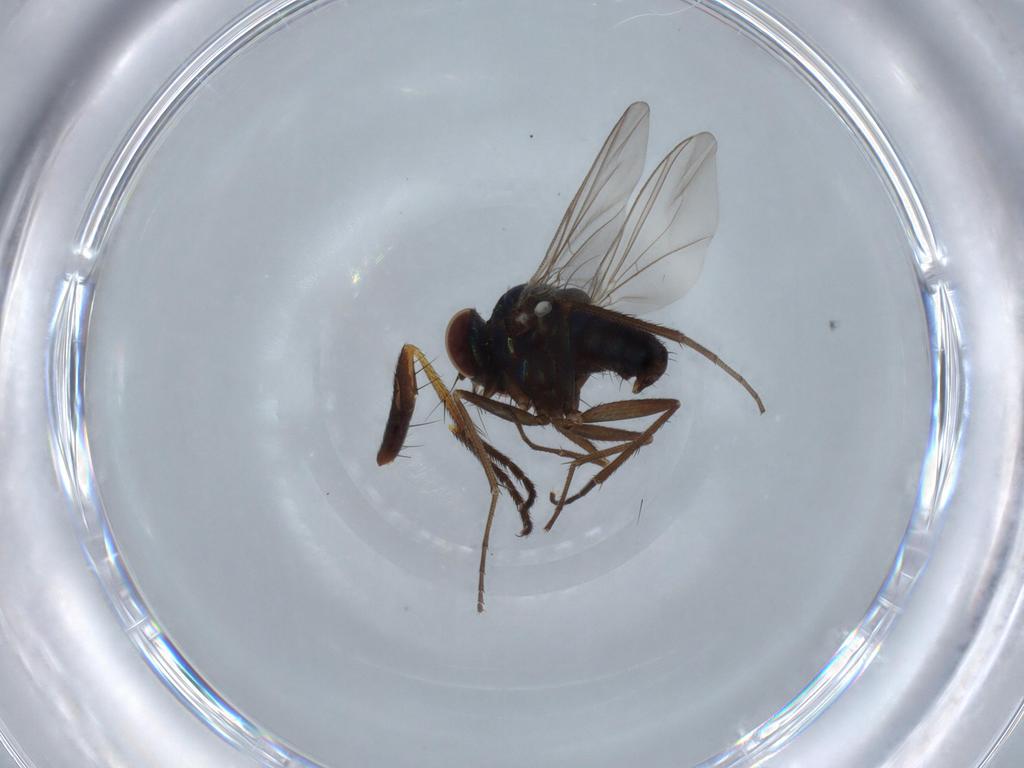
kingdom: Animalia
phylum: Arthropoda
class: Insecta
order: Diptera
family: Dolichopodidae
